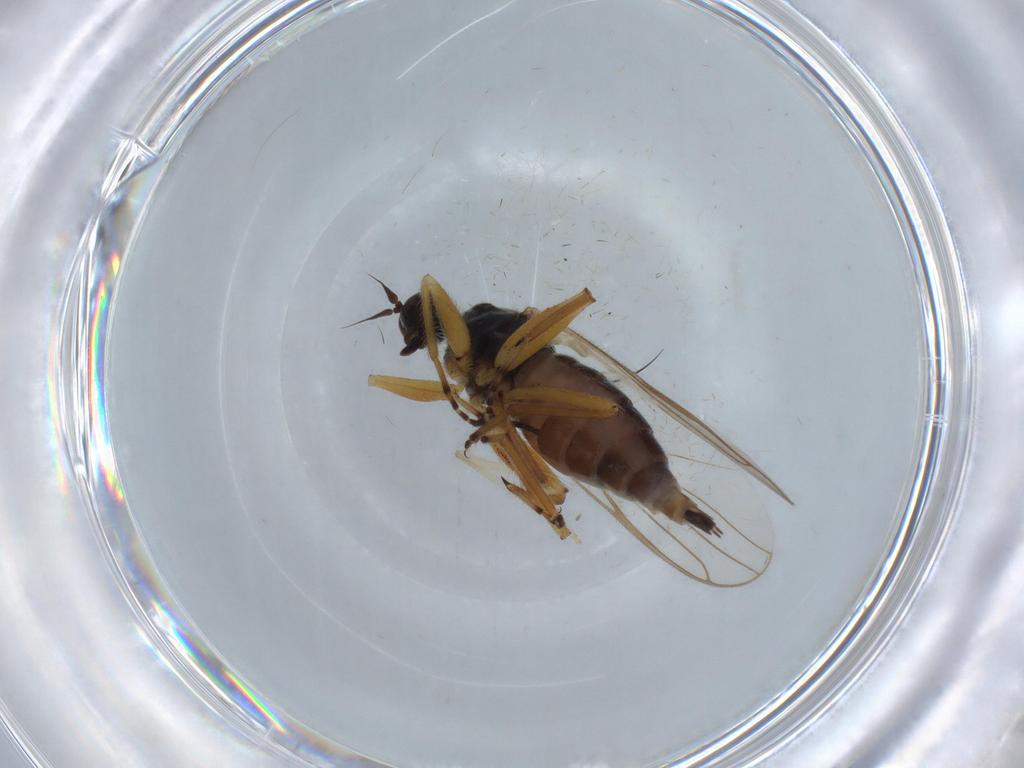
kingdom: Animalia
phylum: Arthropoda
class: Insecta
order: Diptera
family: Hybotidae
